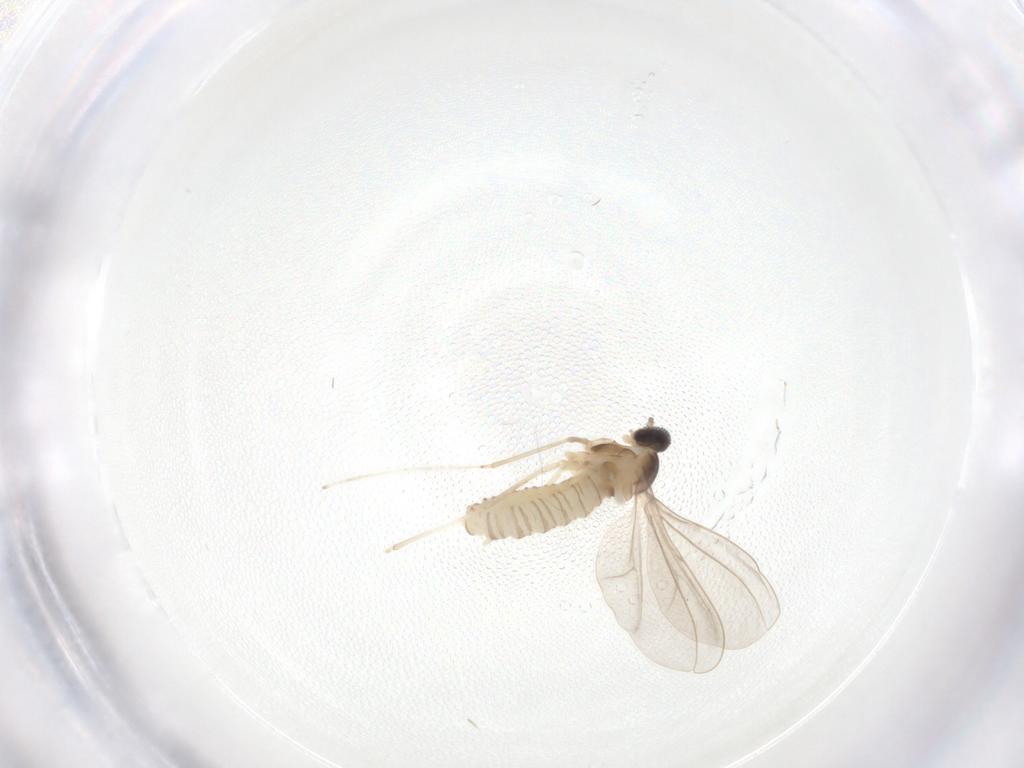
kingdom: Animalia
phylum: Arthropoda
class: Insecta
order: Diptera
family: Cecidomyiidae
